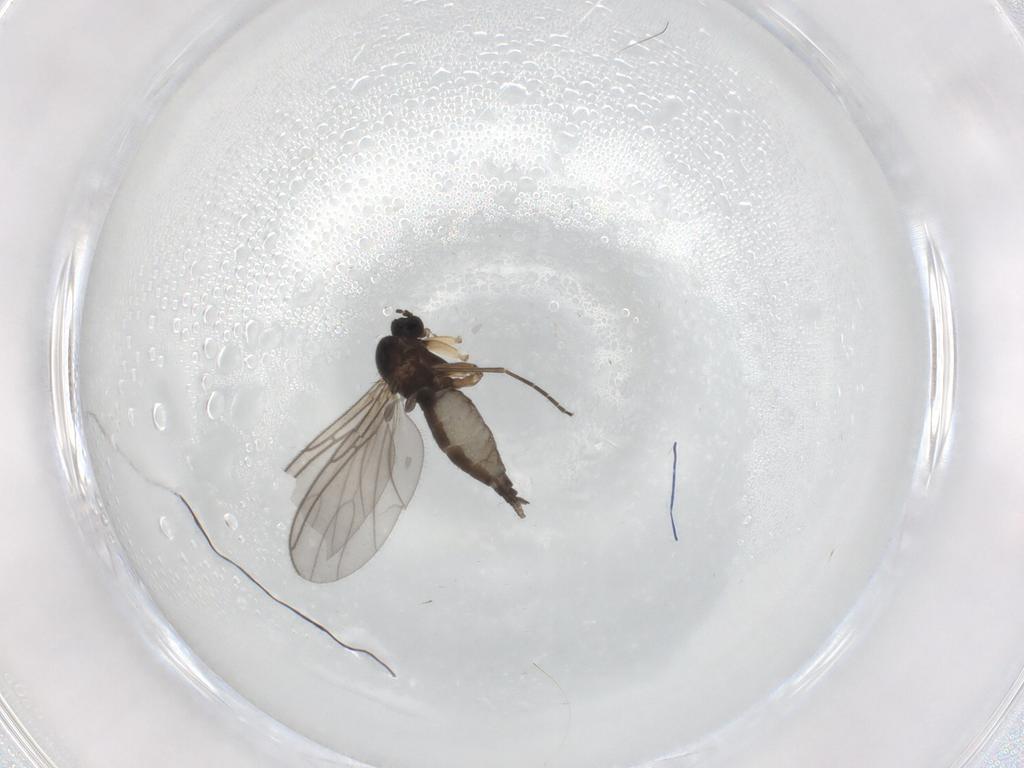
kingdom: Animalia
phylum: Arthropoda
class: Insecta
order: Diptera
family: Sciaridae
